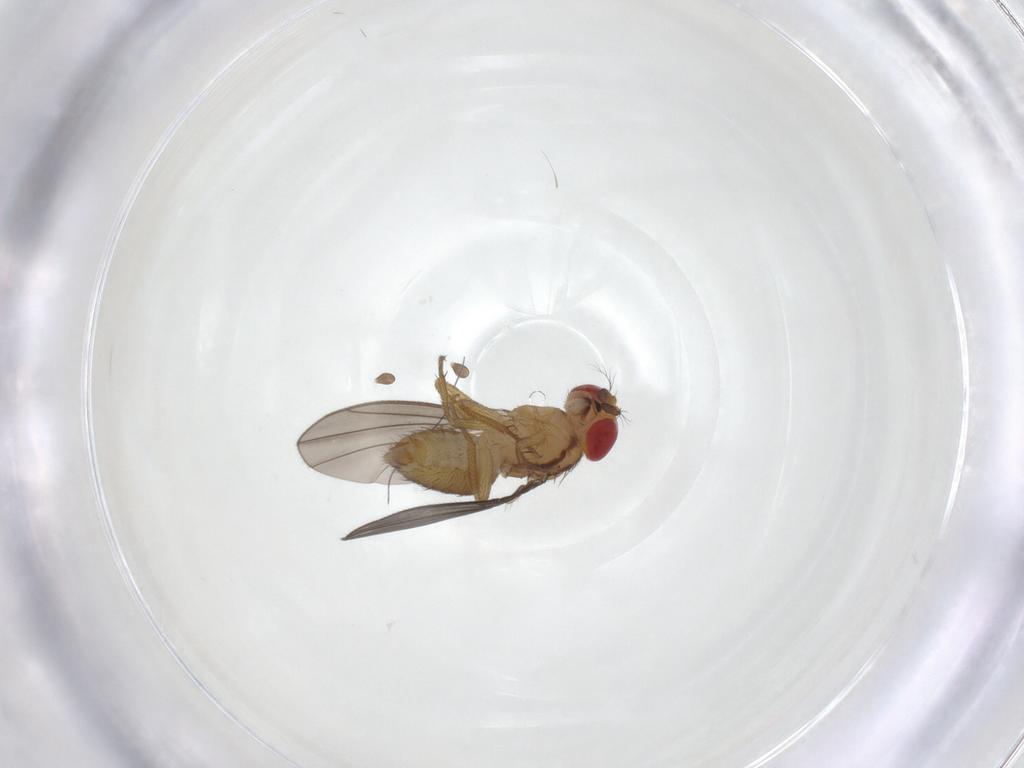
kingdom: Animalia
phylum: Arthropoda
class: Insecta
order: Diptera
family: Drosophilidae
